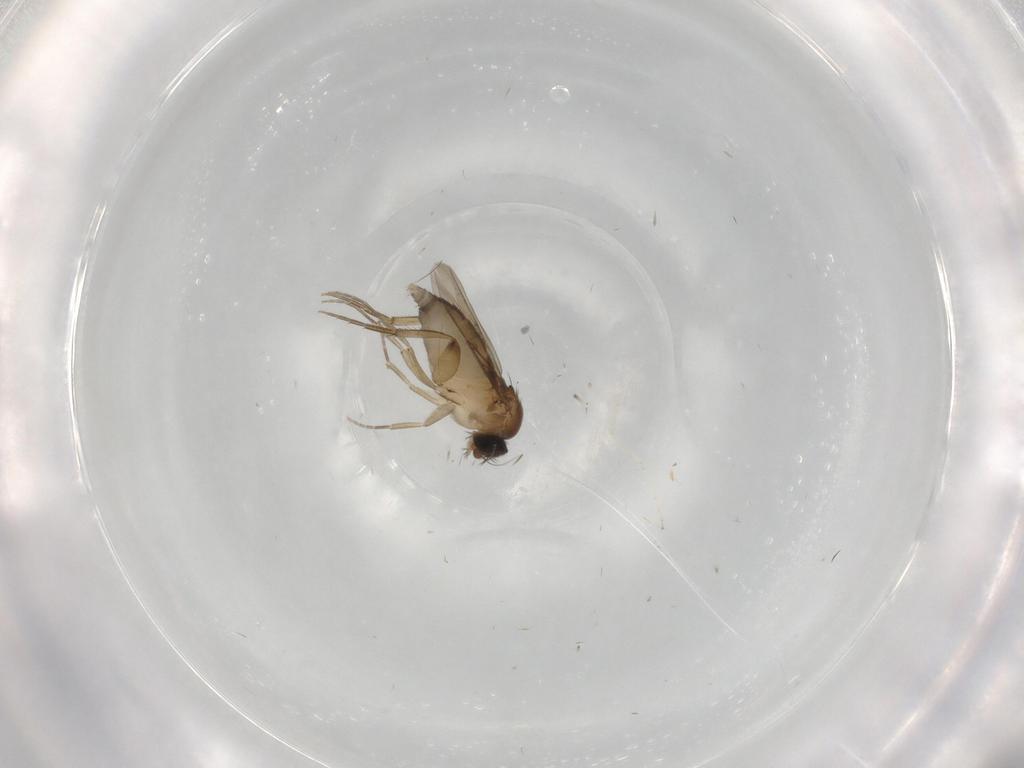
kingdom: Animalia
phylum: Arthropoda
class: Insecta
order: Diptera
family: Phoridae
